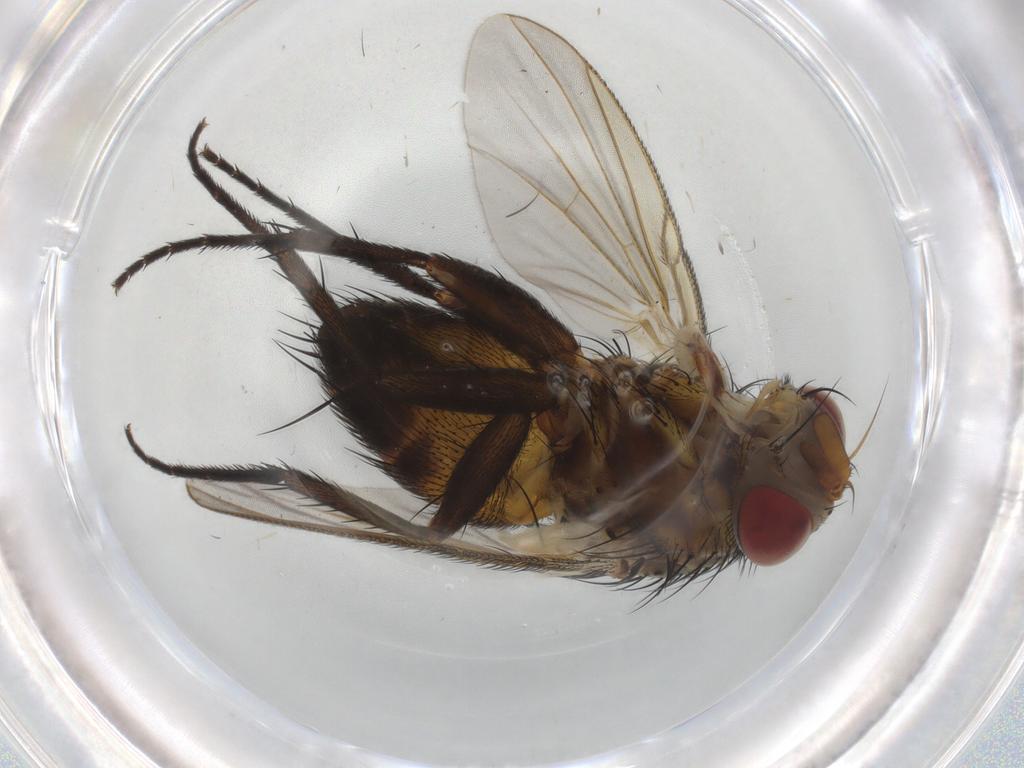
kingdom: Animalia
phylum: Arthropoda
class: Insecta
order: Diptera
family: Tachinidae
